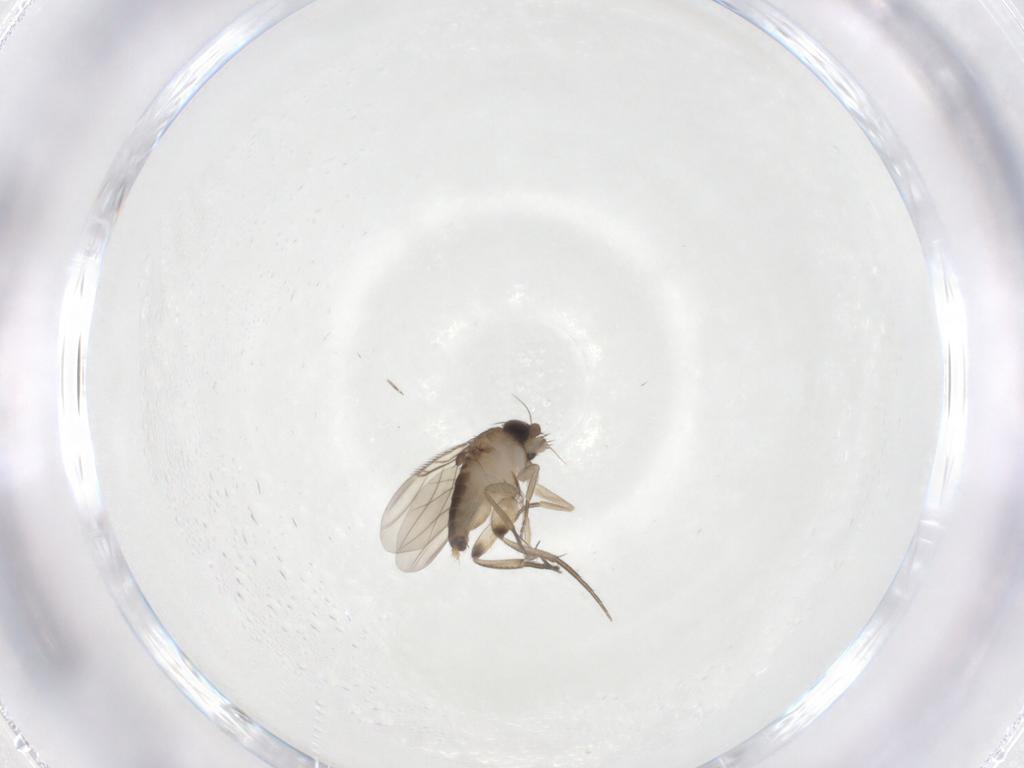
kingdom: Animalia
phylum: Arthropoda
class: Insecta
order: Diptera
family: Phoridae
